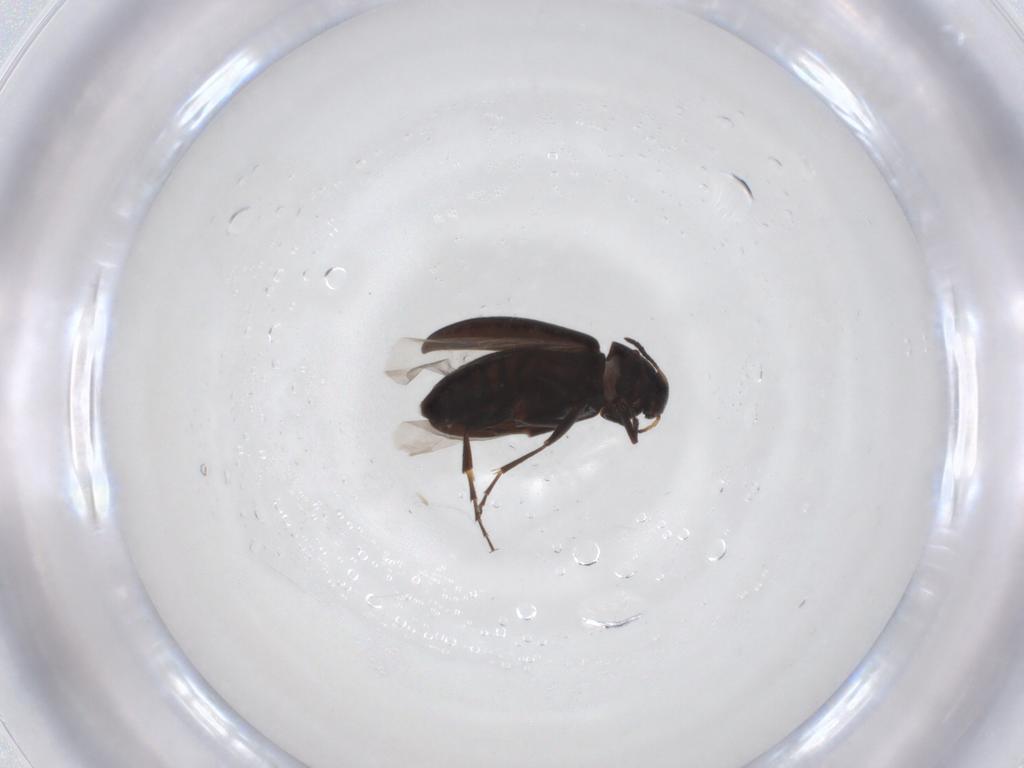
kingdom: Animalia
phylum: Arthropoda
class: Insecta
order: Coleoptera
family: Scraptiidae
